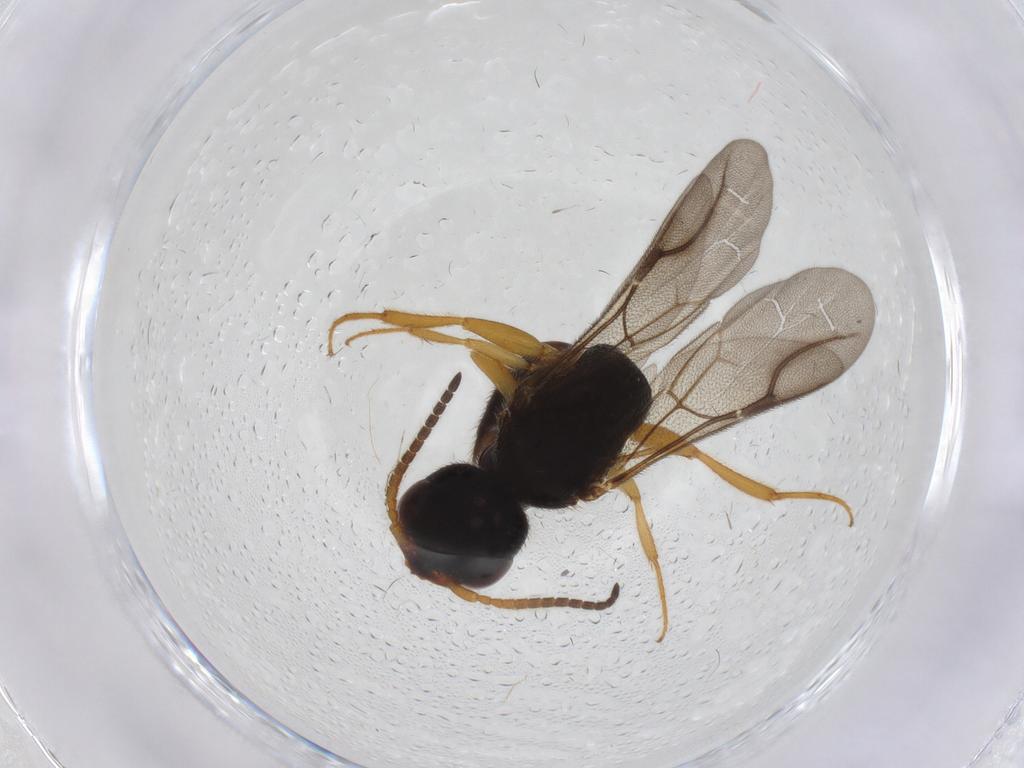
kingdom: Animalia
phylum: Arthropoda
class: Insecta
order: Hymenoptera
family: Bethylidae
